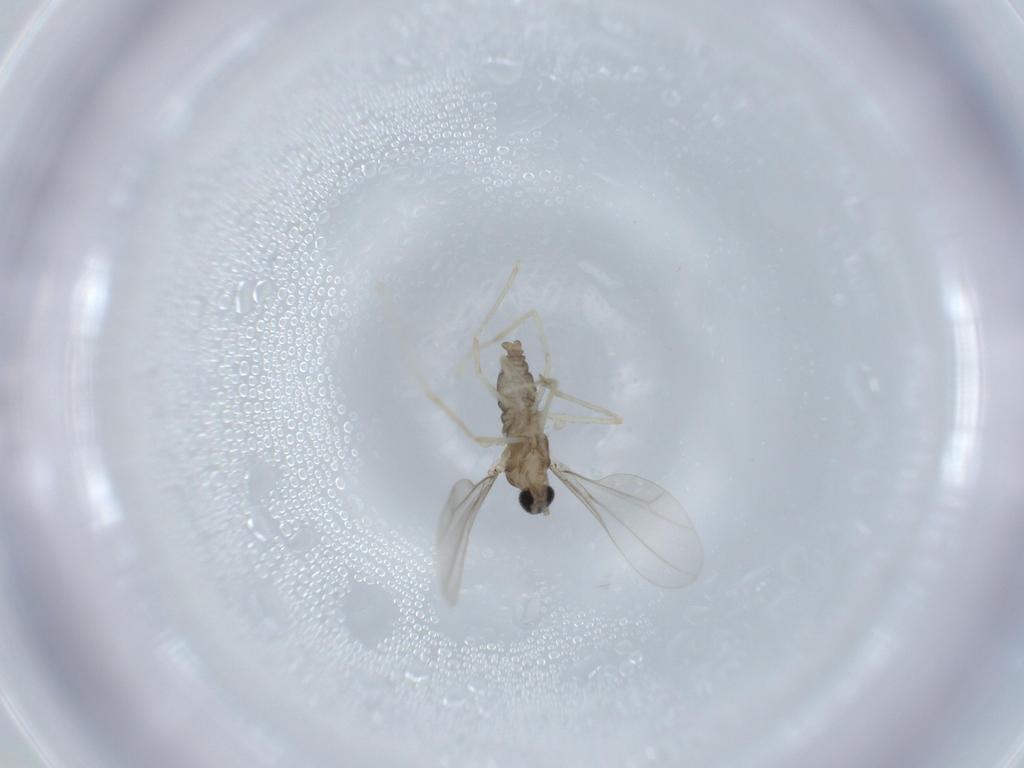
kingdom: Animalia
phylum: Arthropoda
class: Insecta
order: Diptera
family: Cecidomyiidae
